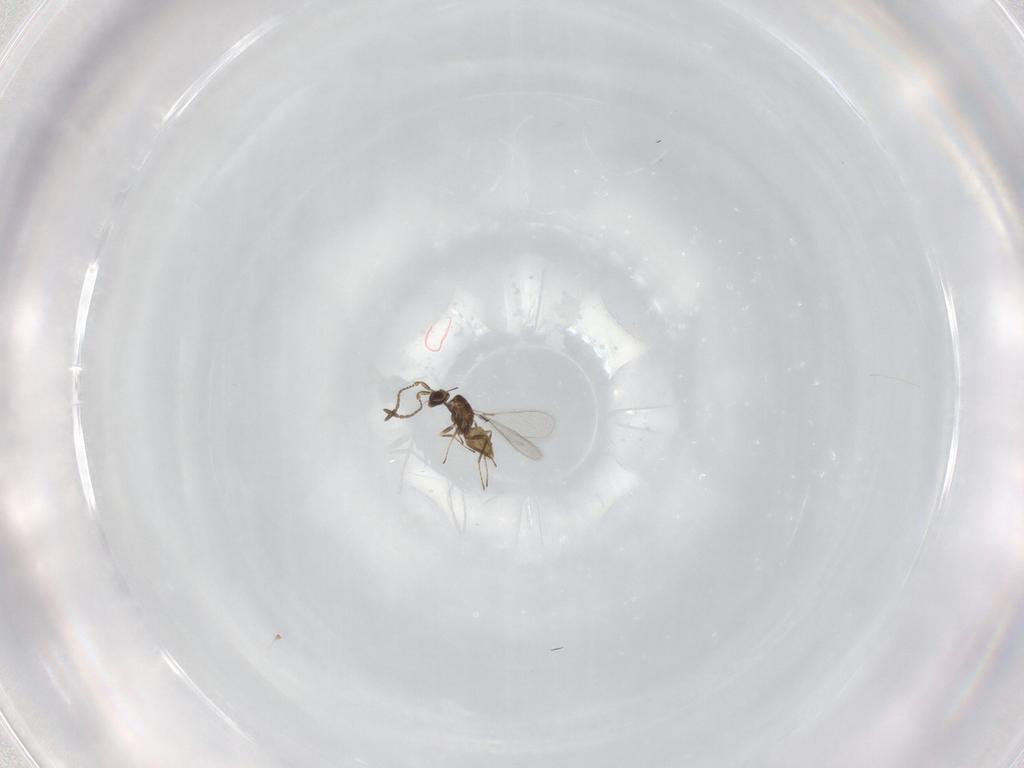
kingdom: Animalia
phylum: Arthropoda
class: Insecta
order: Hymenoptera
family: Mymaridae
